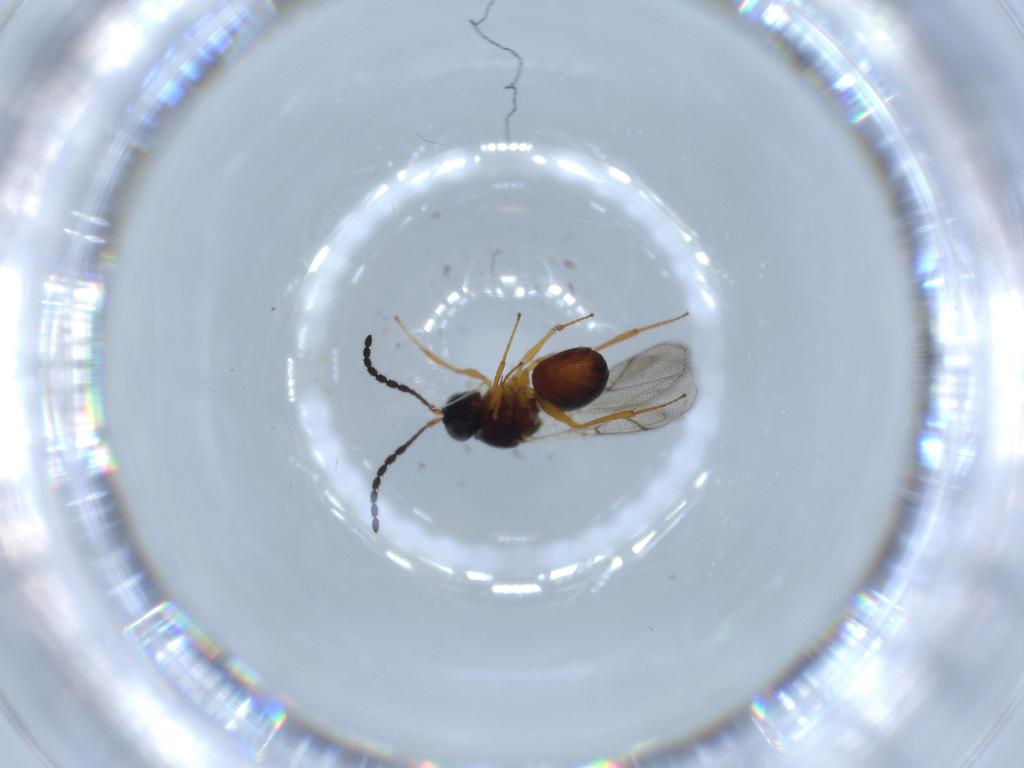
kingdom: Animalia
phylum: Arthropoda
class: Insecta
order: Hymenoptera
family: Figitidae
